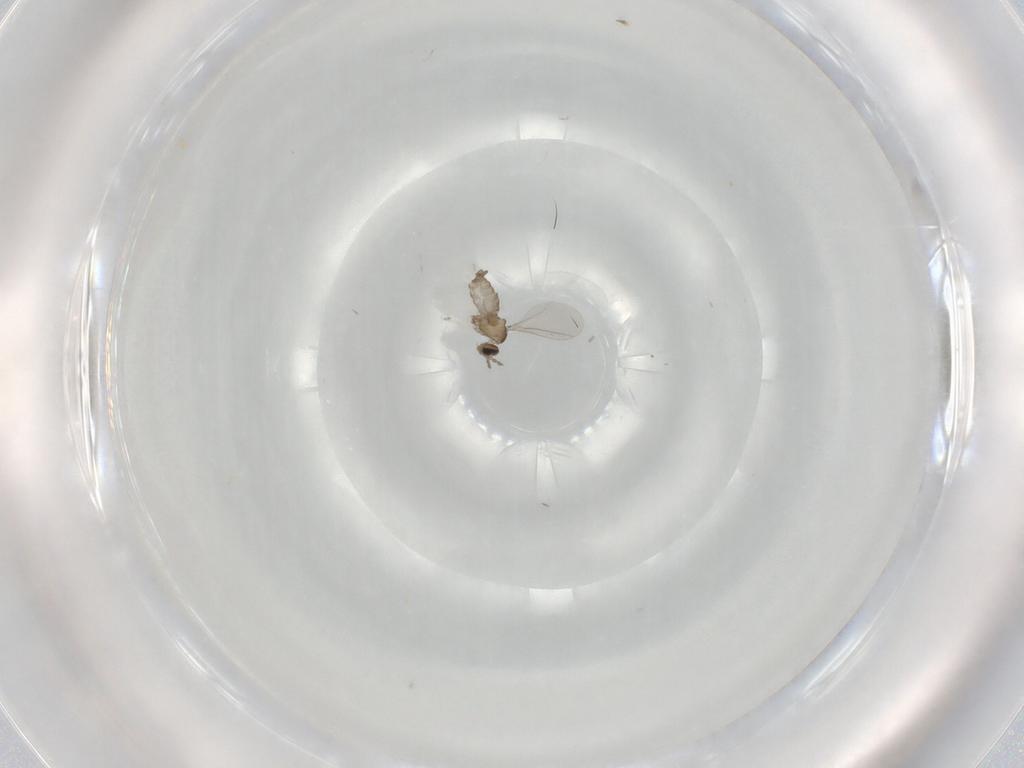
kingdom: Animalia
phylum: Arthropoda
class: Insecta
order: Diptera
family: Cecidomyiidae
